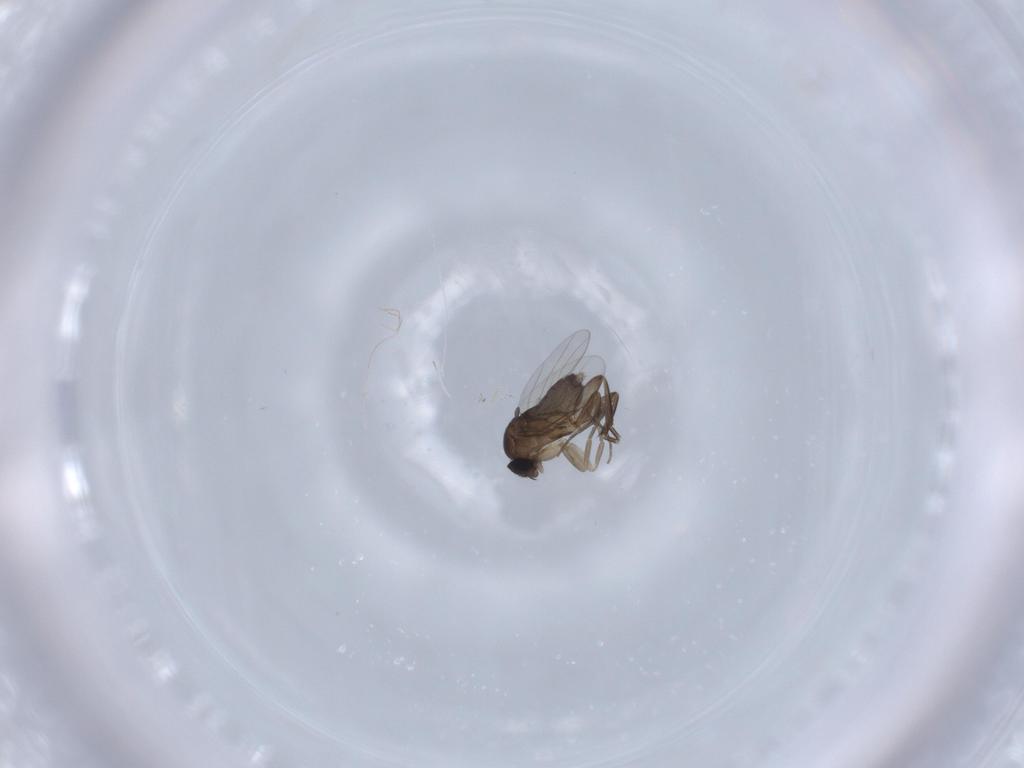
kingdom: Animalia
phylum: Arthropoda
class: Insecta
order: Diptera
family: Phoridae
